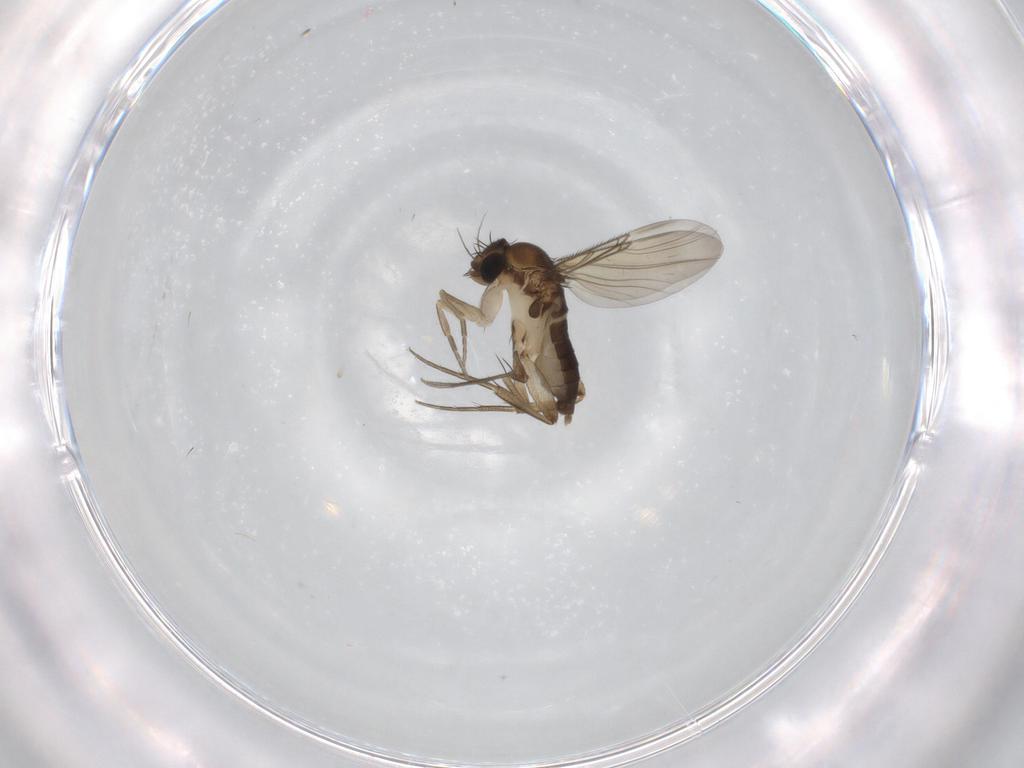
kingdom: Animalia
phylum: Arthropoda
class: Insecta
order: Diptera
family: Phoridae
